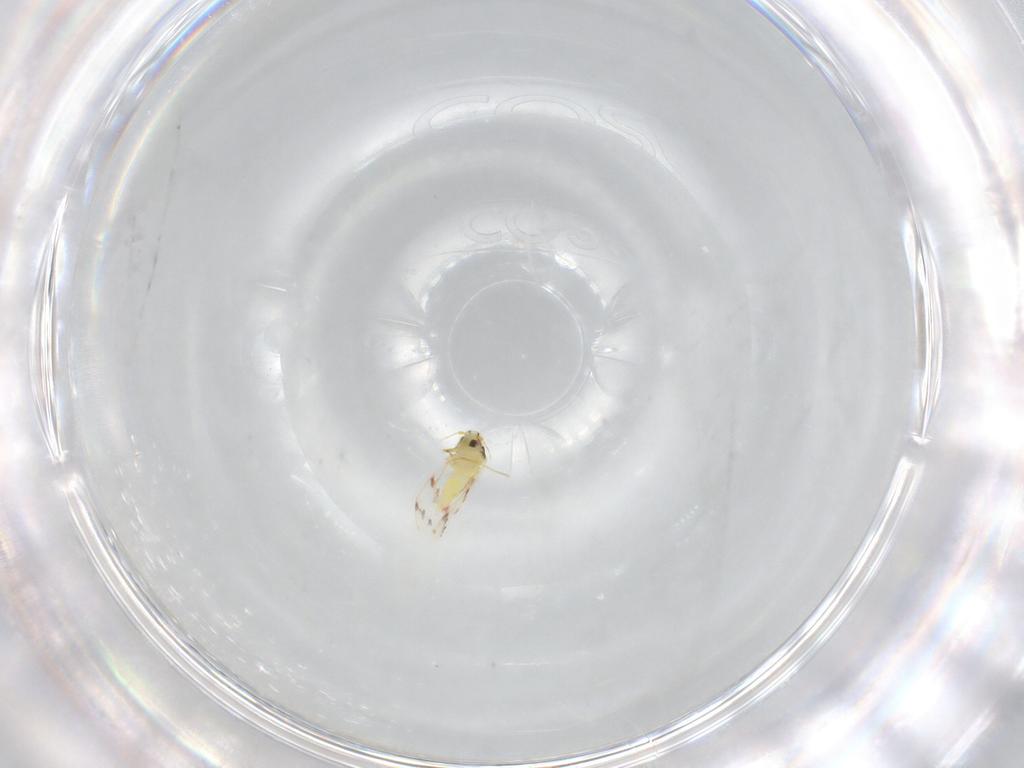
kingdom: Animalia
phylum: Arthropoda
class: Insecta
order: Hemiptera
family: Aleyrodidae
